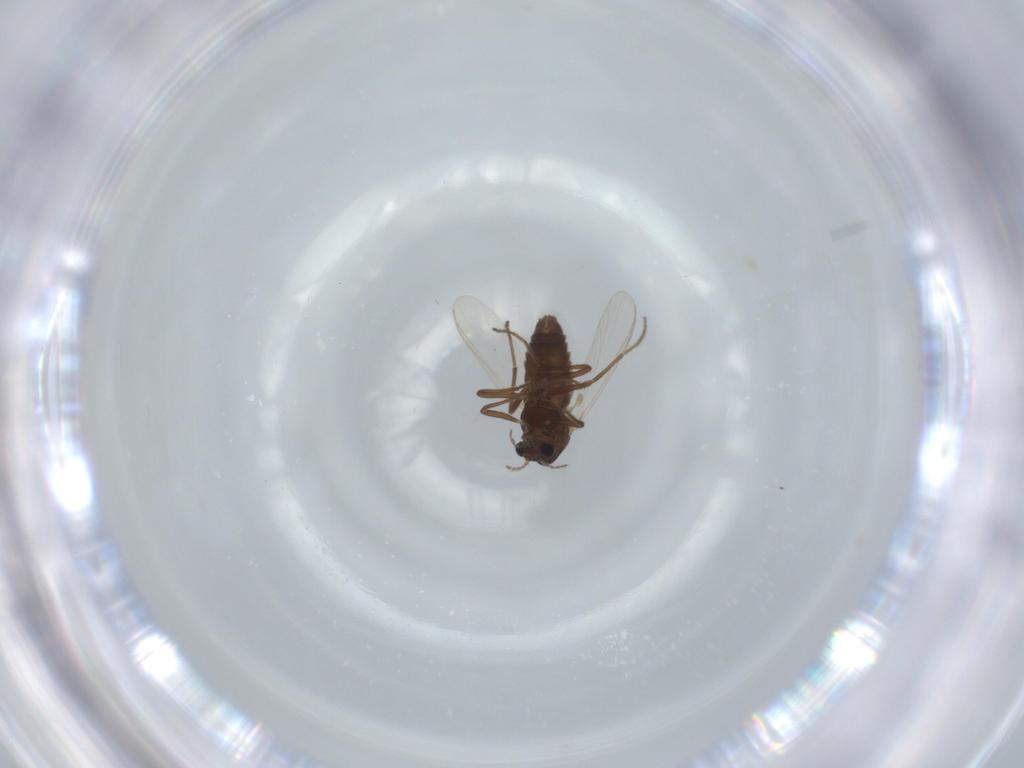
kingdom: Animalia
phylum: Arthropoda
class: Insecta
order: Diptera
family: Chironomidae
